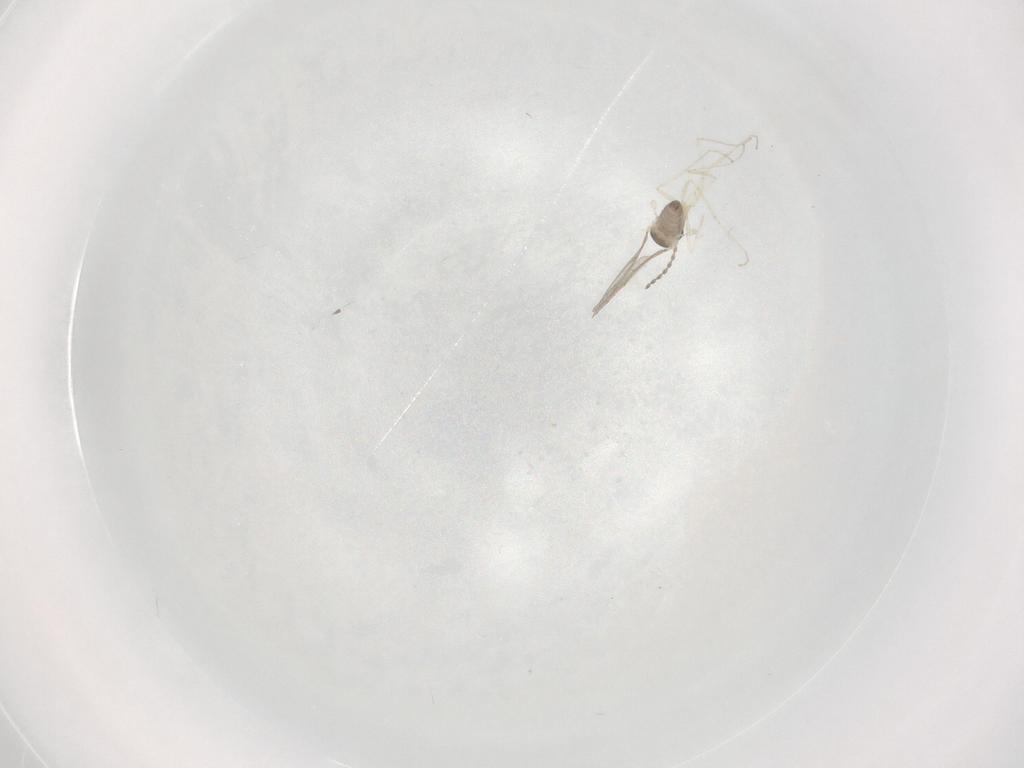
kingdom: Animalia
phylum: Arthropoda
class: Insecta
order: Diptera
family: Cecidomyiidae
